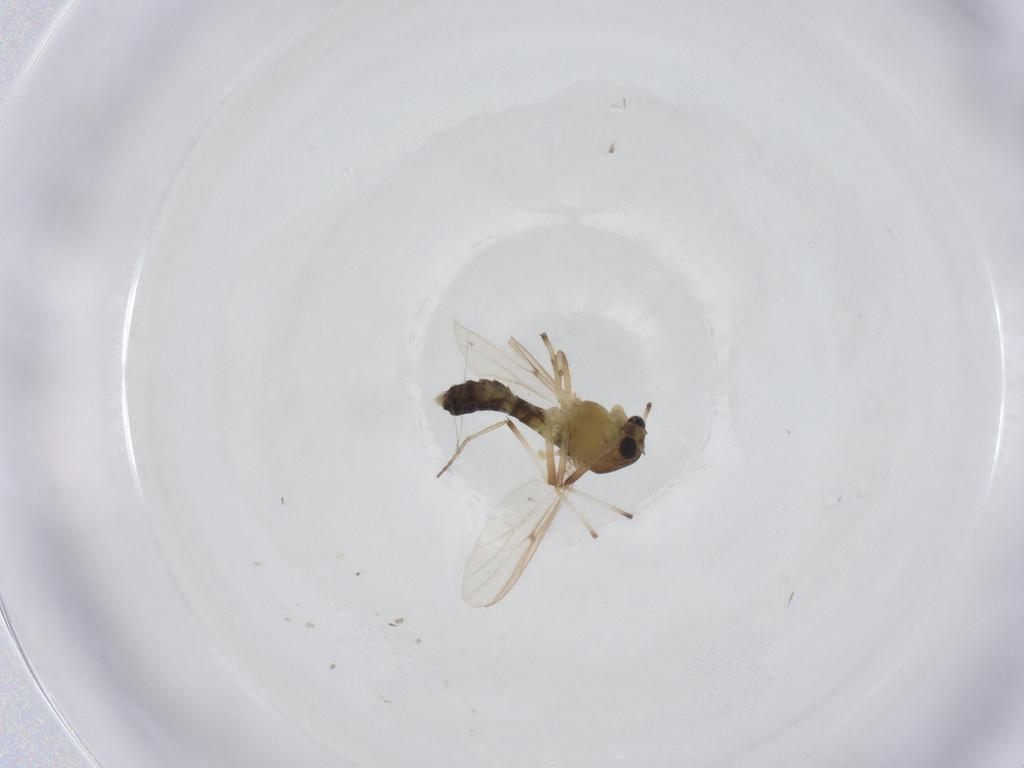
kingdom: Animalia
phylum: Arthropoda
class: Insecta
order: Diptera
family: Chironomidae
